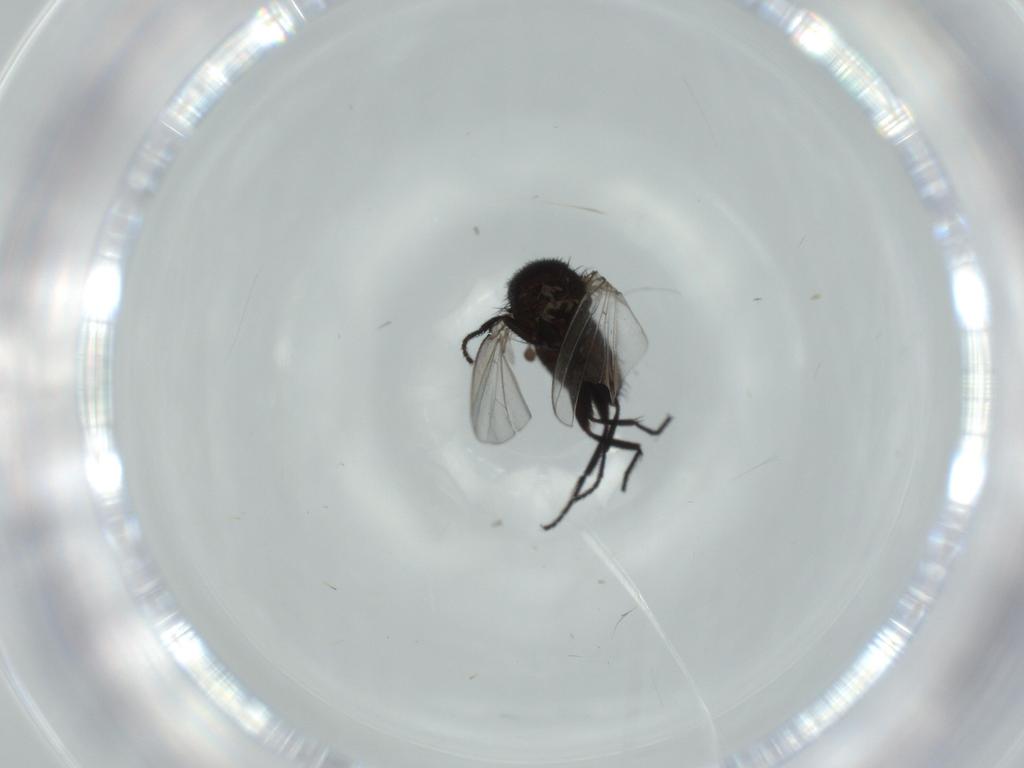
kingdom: Animalia
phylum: Arthropoda
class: Insecta
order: Diptera
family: Milichiidae
